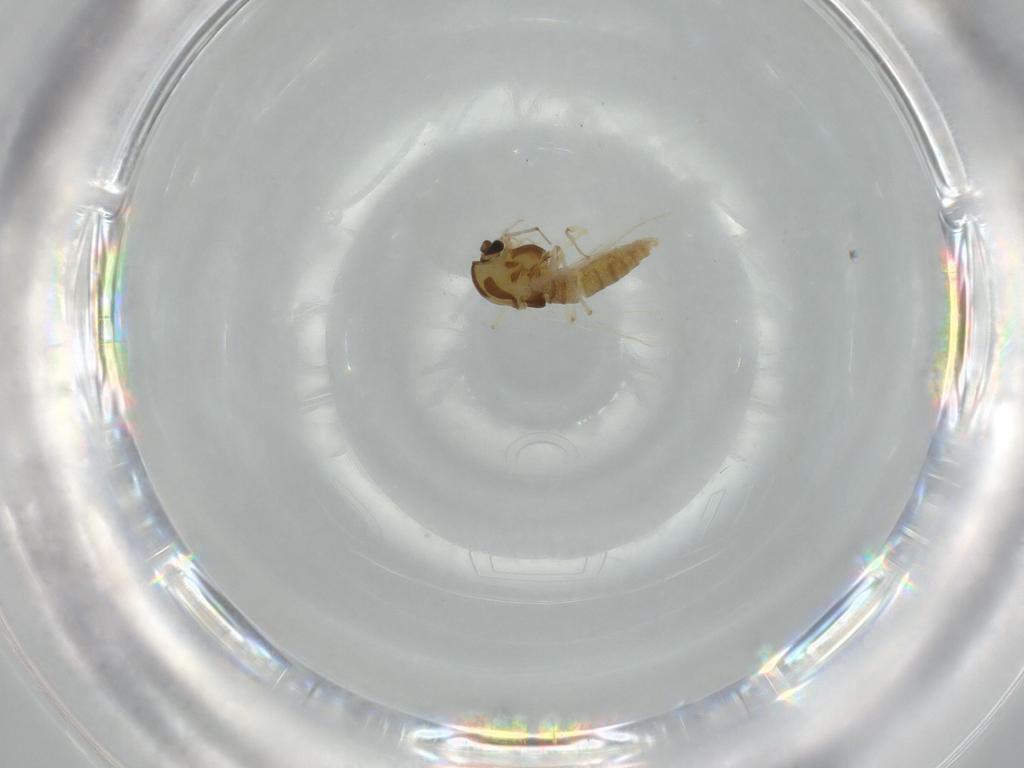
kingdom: Animalia
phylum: Arthropoda
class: Insecta
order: Diptera
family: Chironomidae
